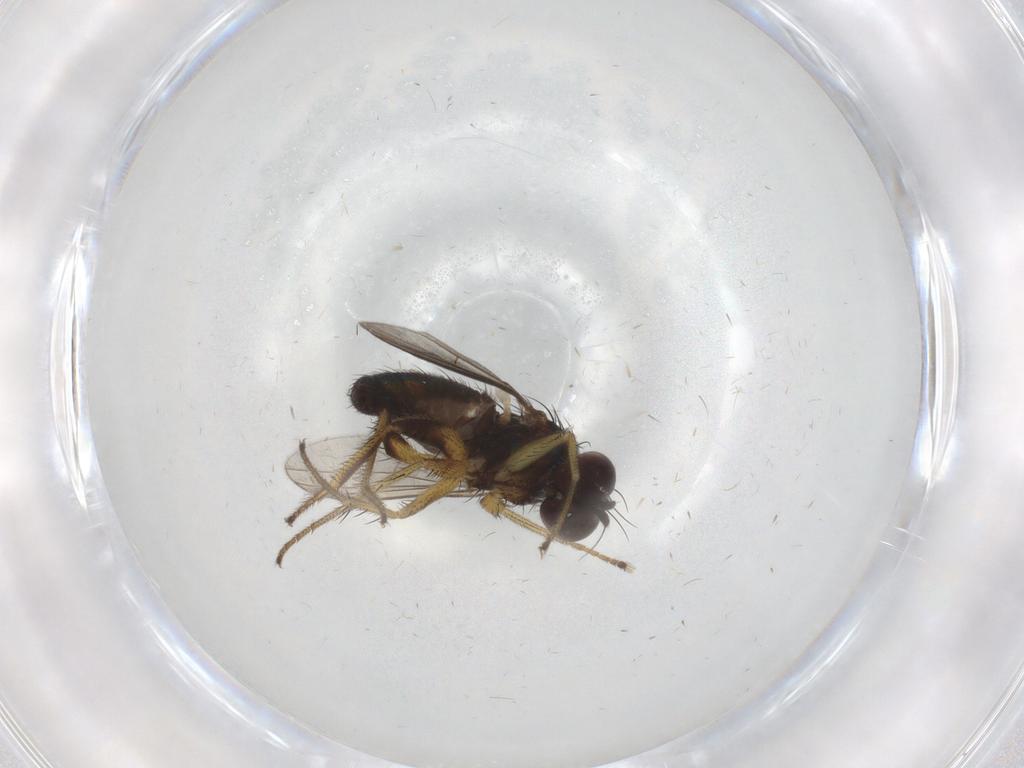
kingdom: Animalia
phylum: Arthropoda
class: Insecta
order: Diptera
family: Dolichopodidae
